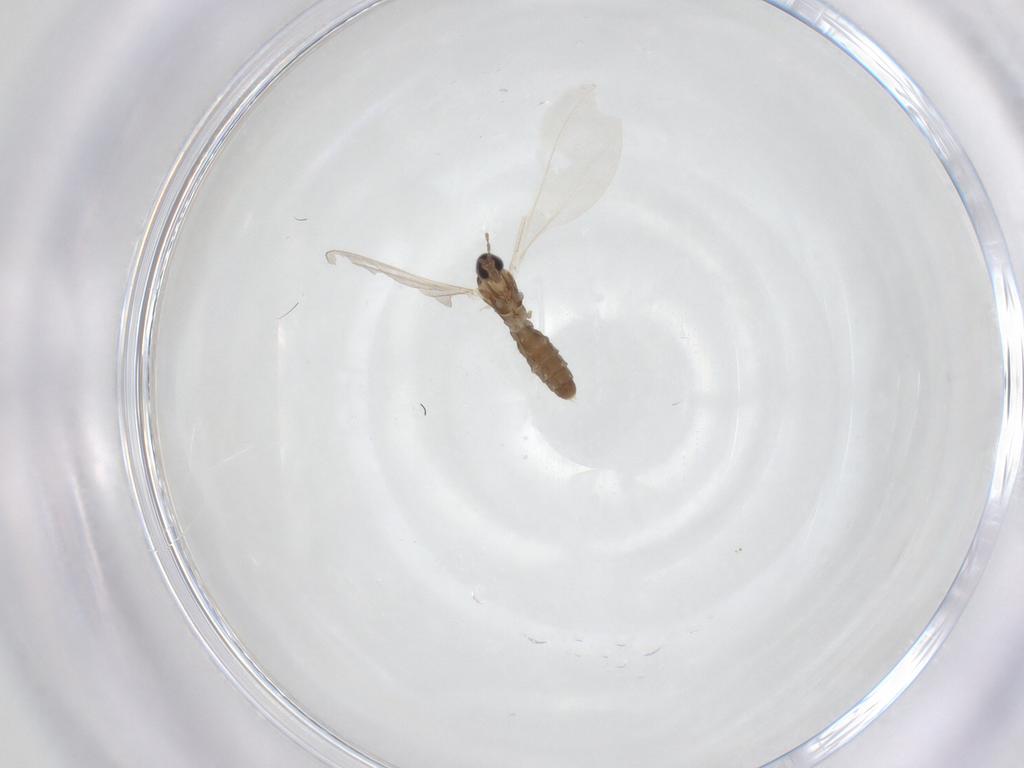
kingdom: Animalia
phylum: Arthropoda
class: Insecta
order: Diptera
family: Cecidomyiidae
